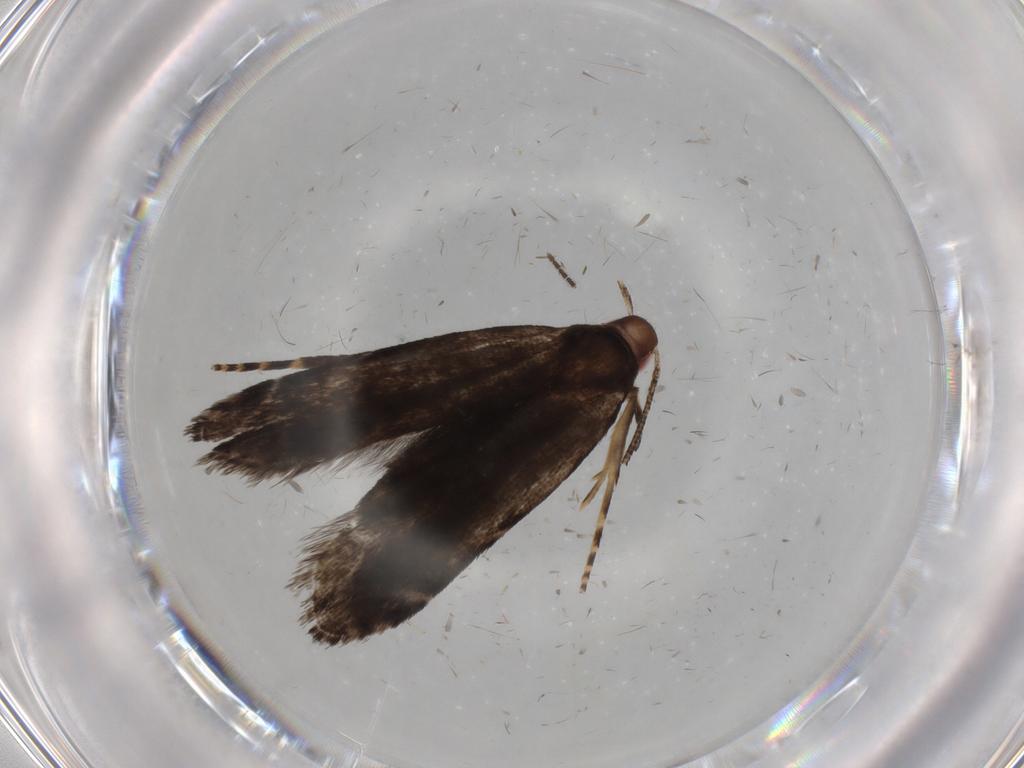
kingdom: Animalia
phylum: Arthropoda
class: Insecta
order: Lepidoptera
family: Gelechiidae
